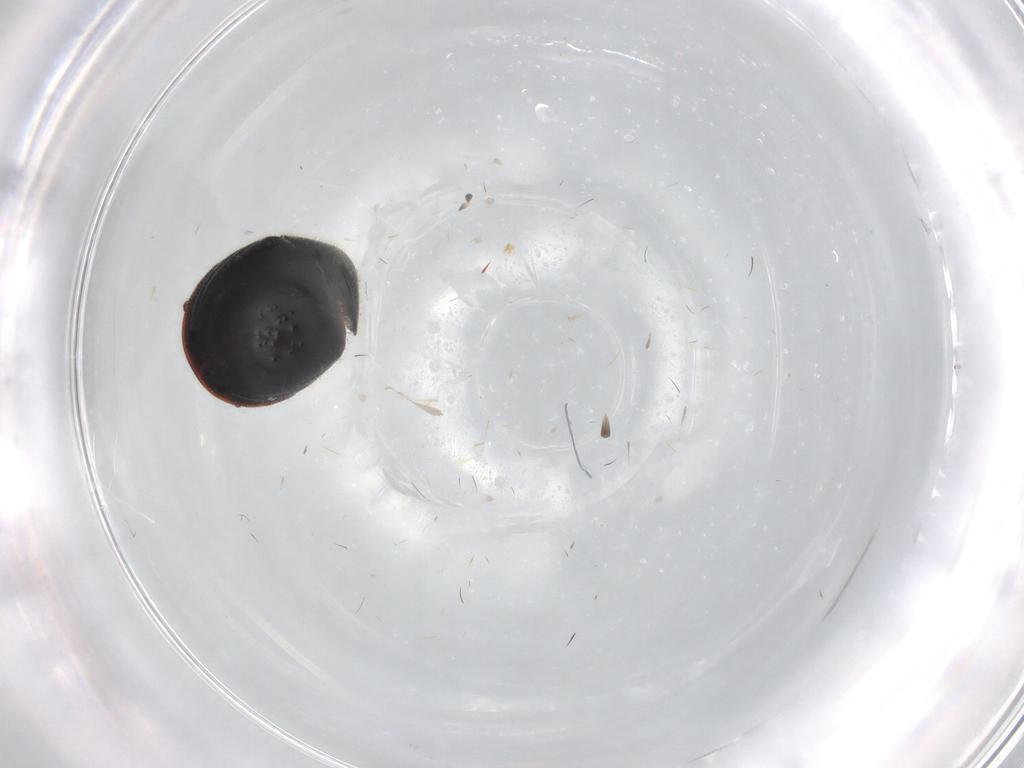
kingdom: Animalia
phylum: Arthropoda
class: Insecta
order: Coleoptera
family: Ptinidae
